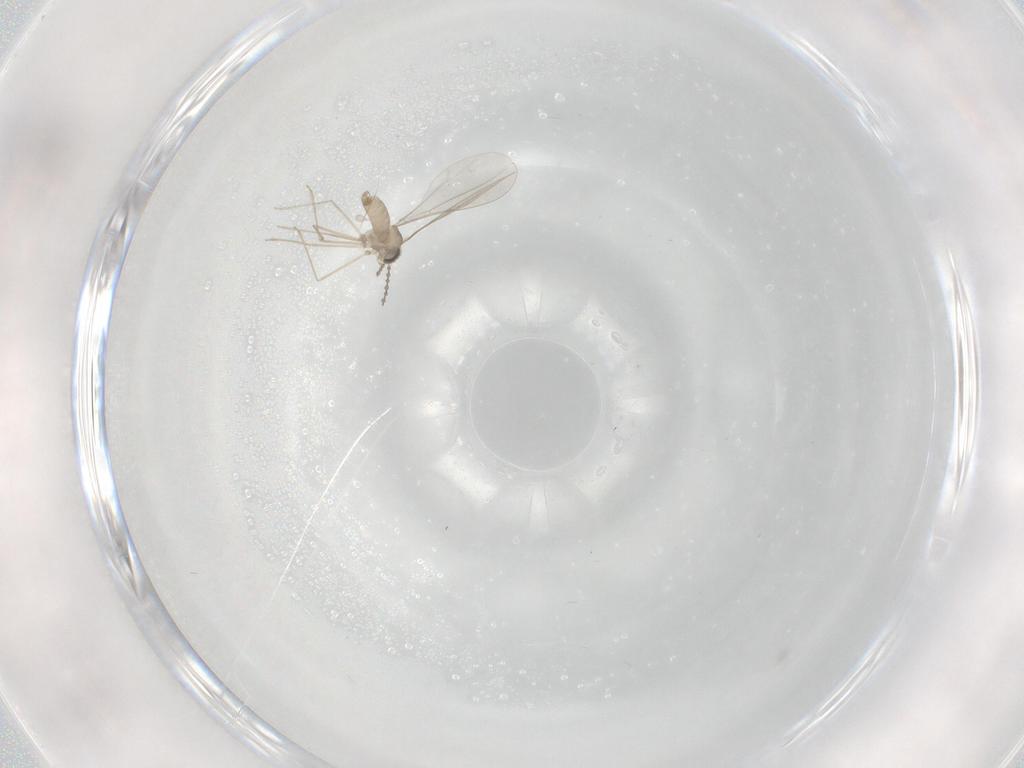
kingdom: Animalia
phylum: Arthropoda
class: Insecta
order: Diptera
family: Cecidomyiidae
